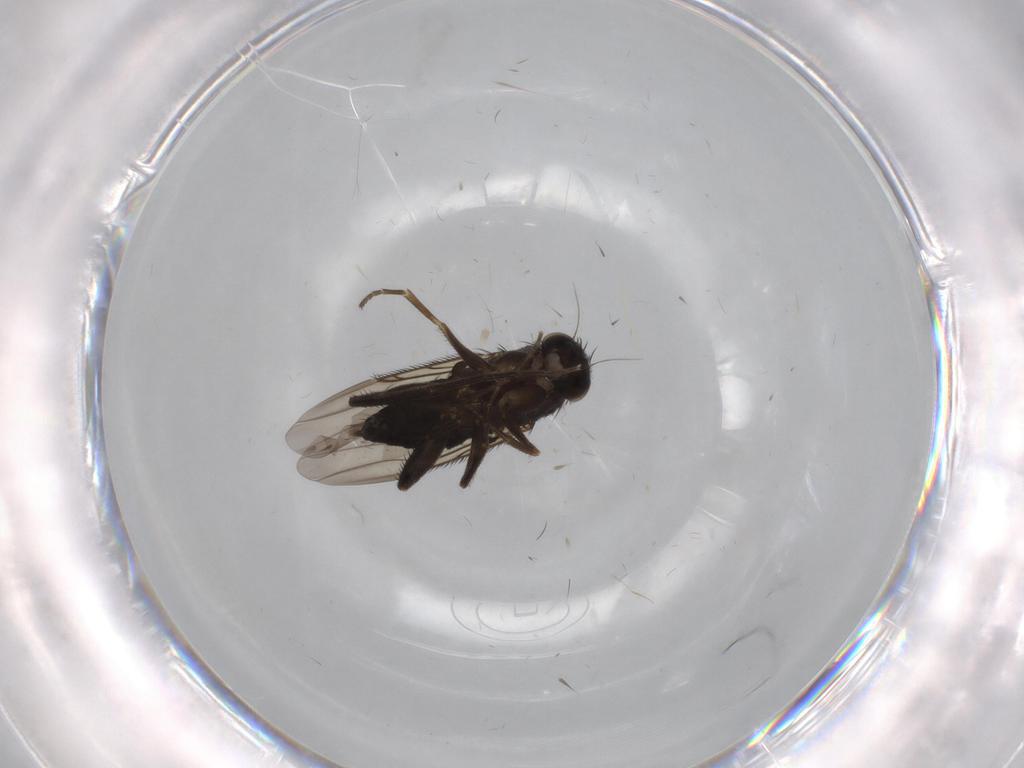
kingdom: Animalia
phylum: Arthropoda
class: Insecta
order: Diptera
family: Phoridae
